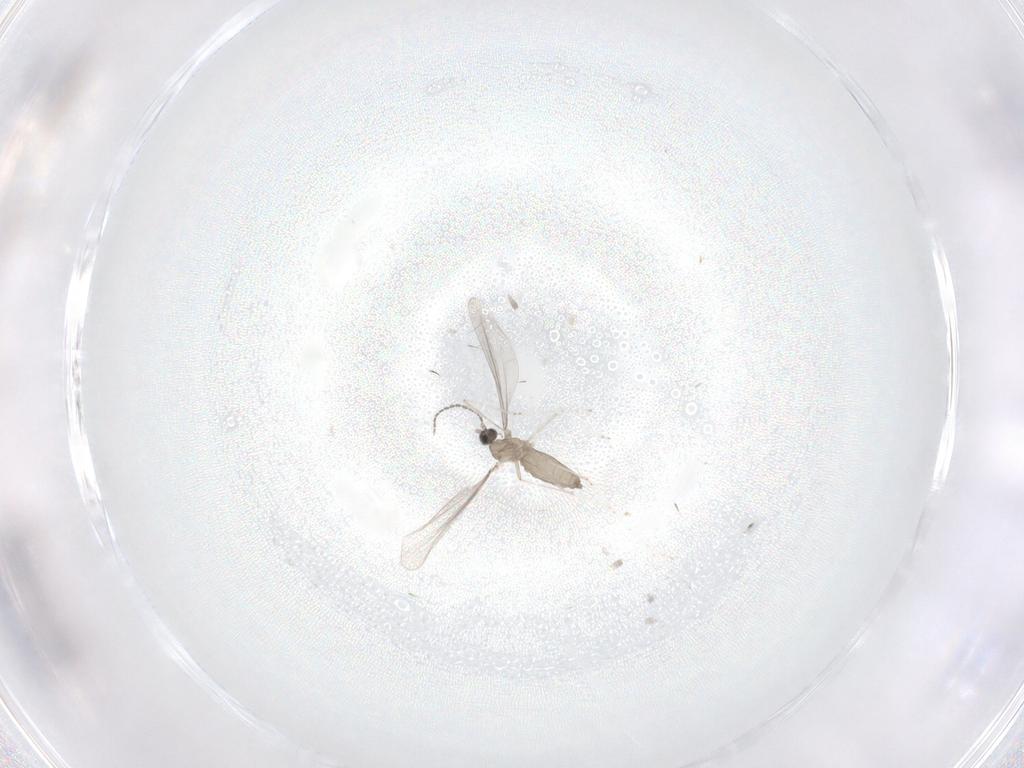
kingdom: Animalia
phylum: Arthropoda
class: Insecta
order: Diptera
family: Cecidomyiidae
